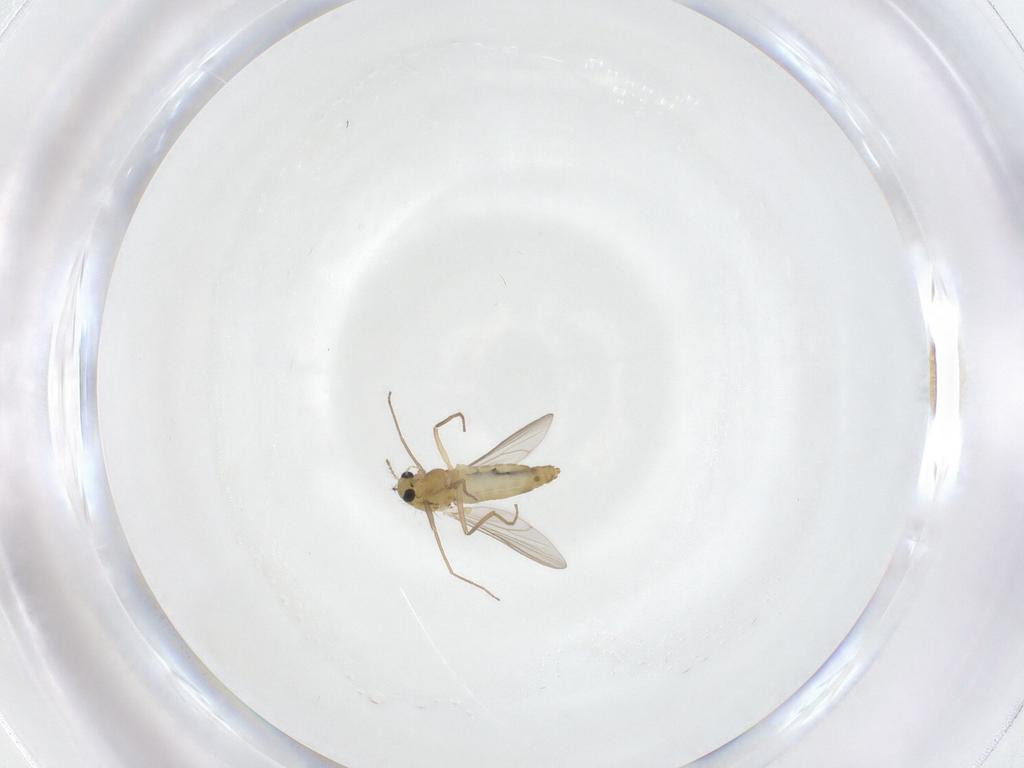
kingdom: Animalia
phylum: Arthropoda
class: Insecta
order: Diptera
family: Chironomidae
